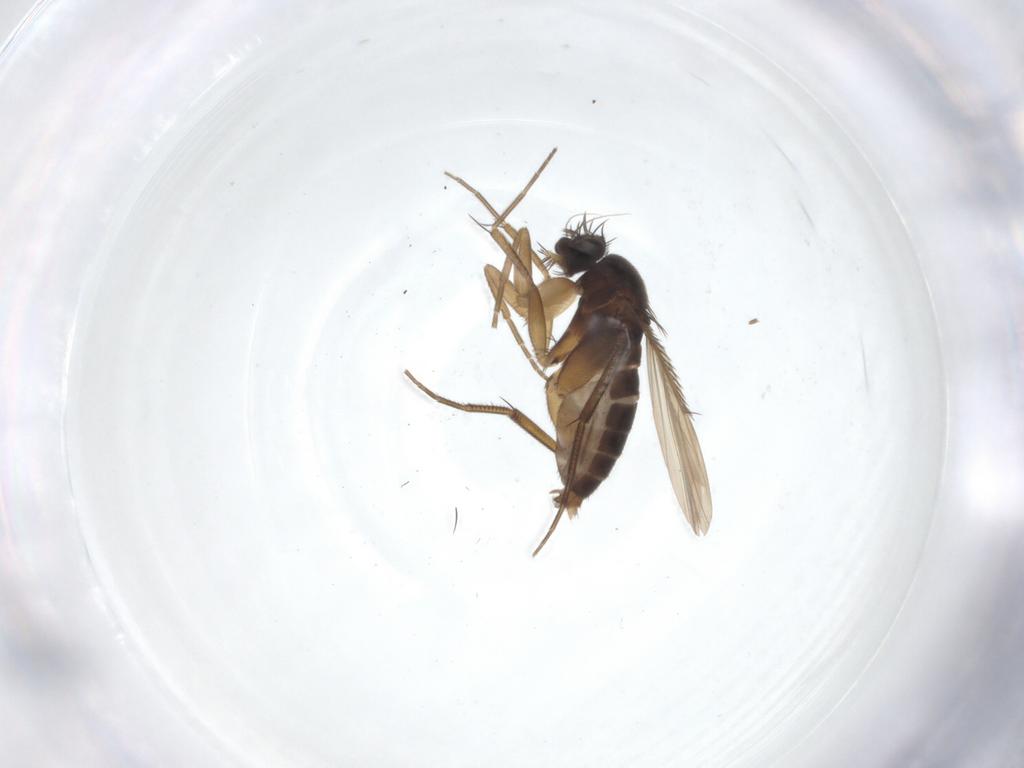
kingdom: Animalia
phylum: Arthropoda
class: Insecta
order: Diptera
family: Phoridae
